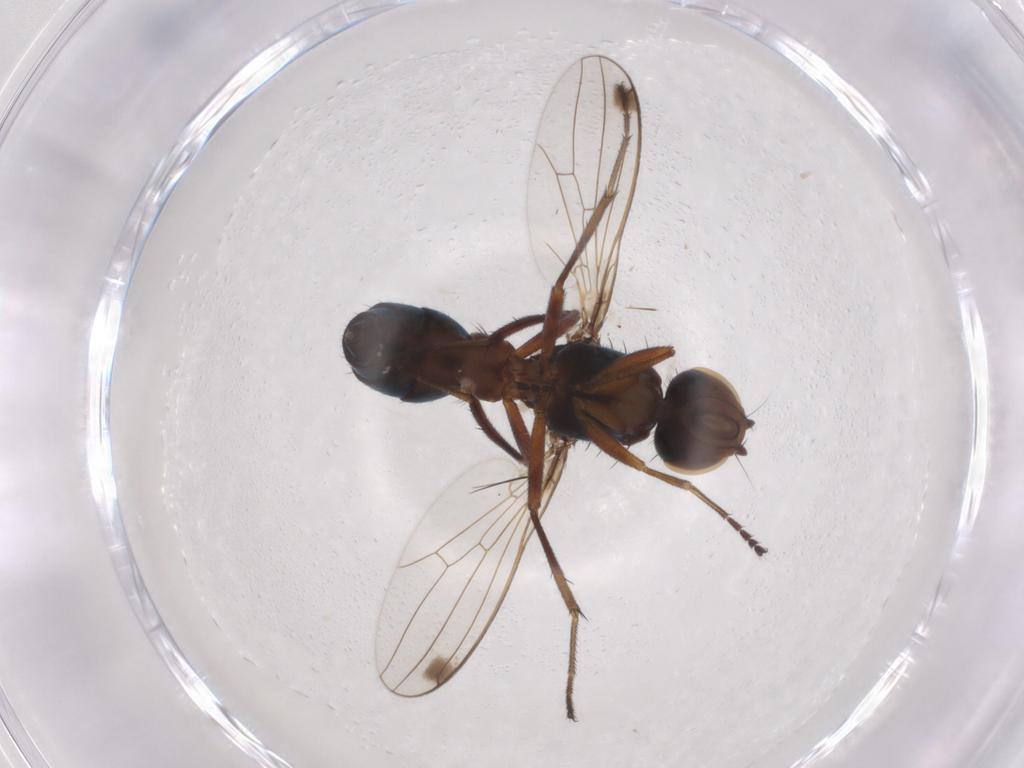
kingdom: Animalia
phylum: Arthropoda
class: Insecta
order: Diptera
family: Sepsidae
